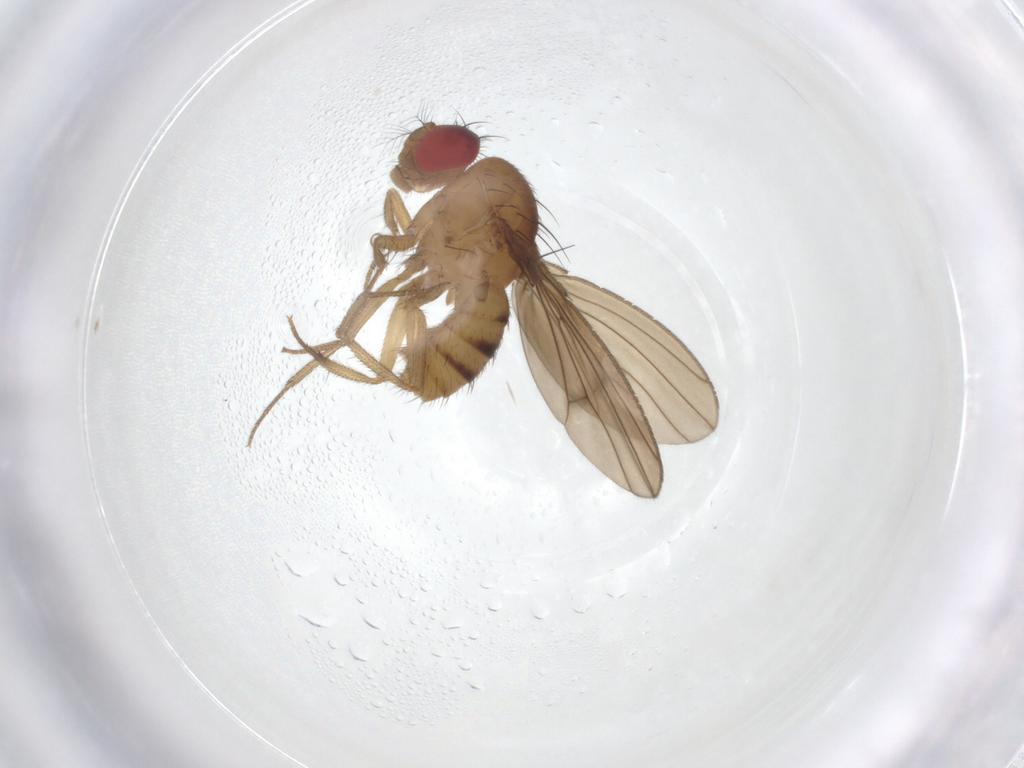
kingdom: Animalia
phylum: Arthropoda
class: Insecta
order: Diptera
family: Drosophilidae
